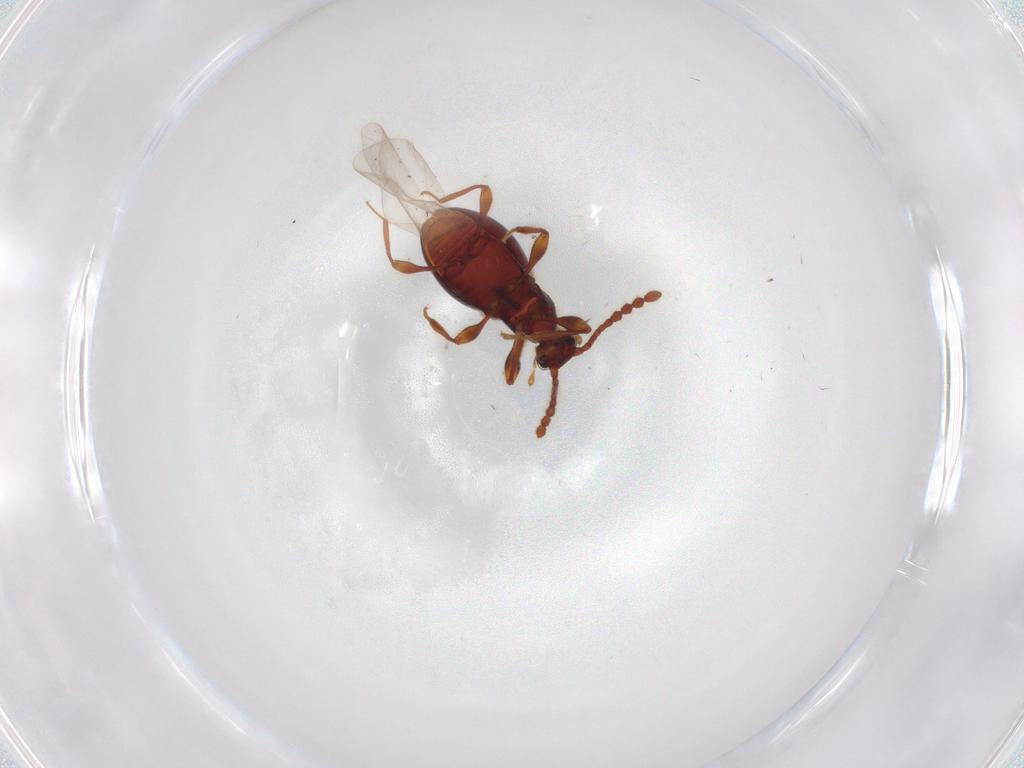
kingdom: Animalia
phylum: Arthropoda
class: Insecta
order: Coleoptera
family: Staphylinidae
